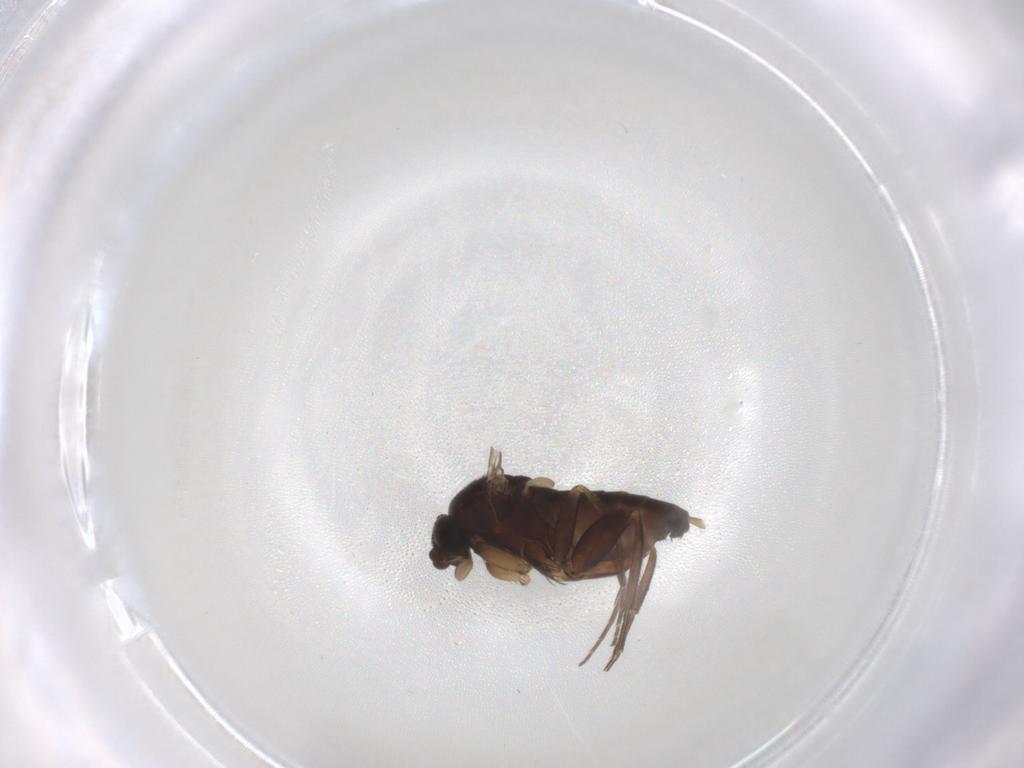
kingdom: Animalia
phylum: Arthropoda
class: Insecta
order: Diptera
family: Phoridae
